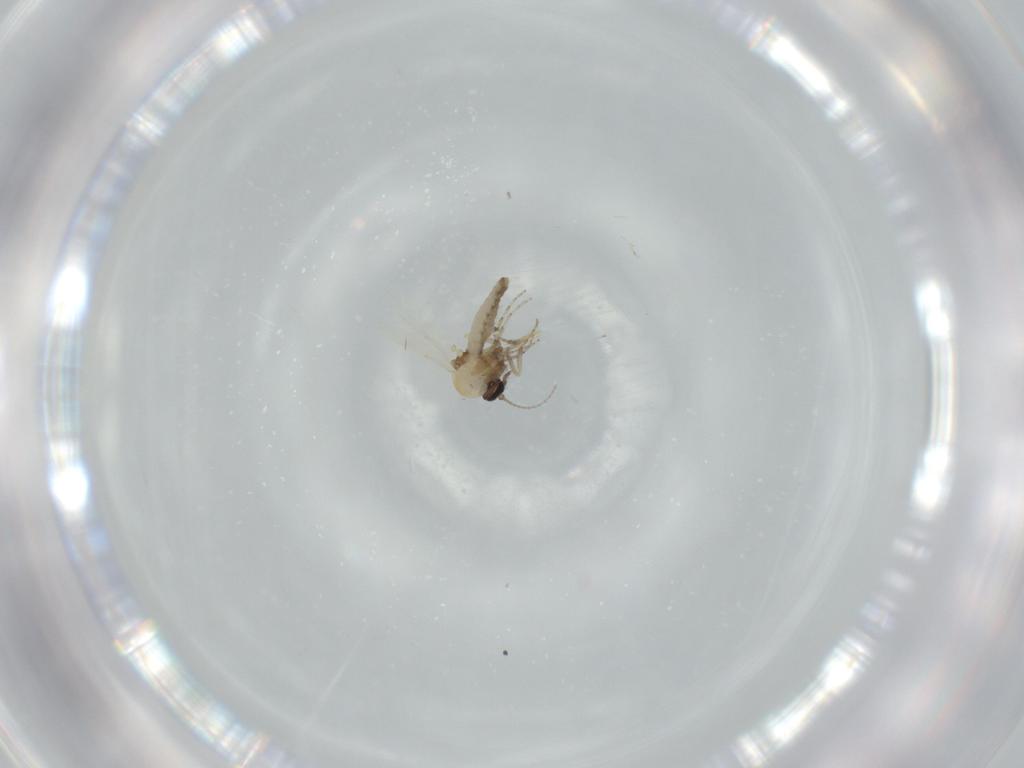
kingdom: Animalia
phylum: Arthropoda
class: Insecta
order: Diptera
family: Ceratopogonidae
